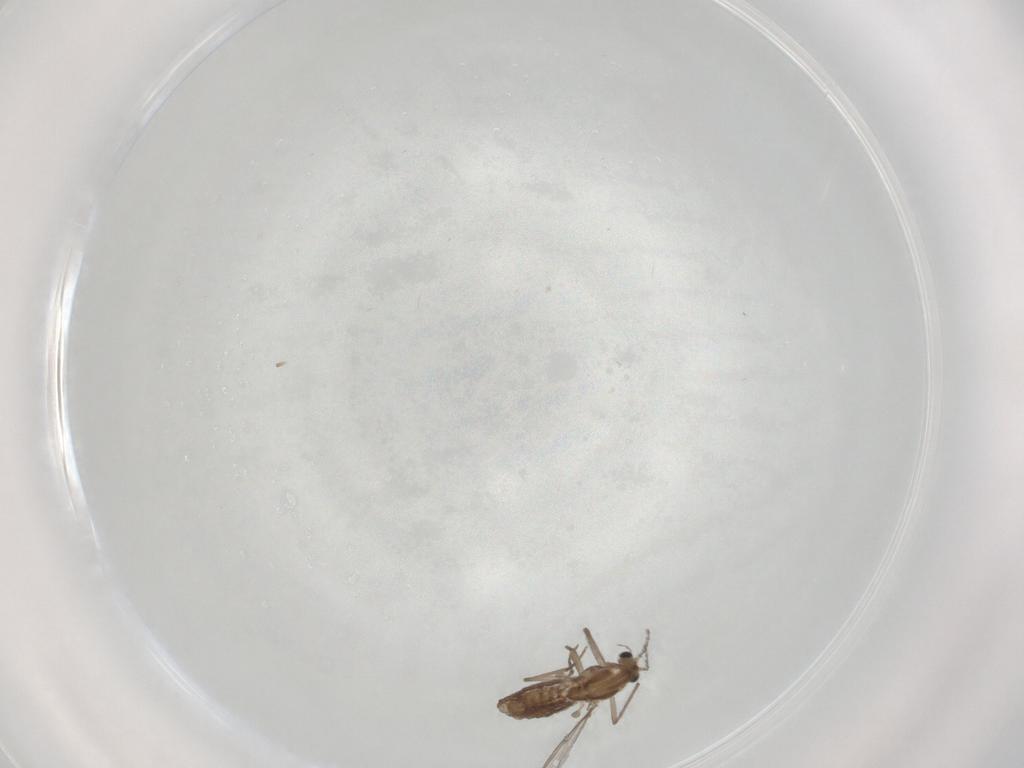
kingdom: Animalia
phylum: Arthropoda
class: Insecta
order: Diptera
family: Chironomidae
